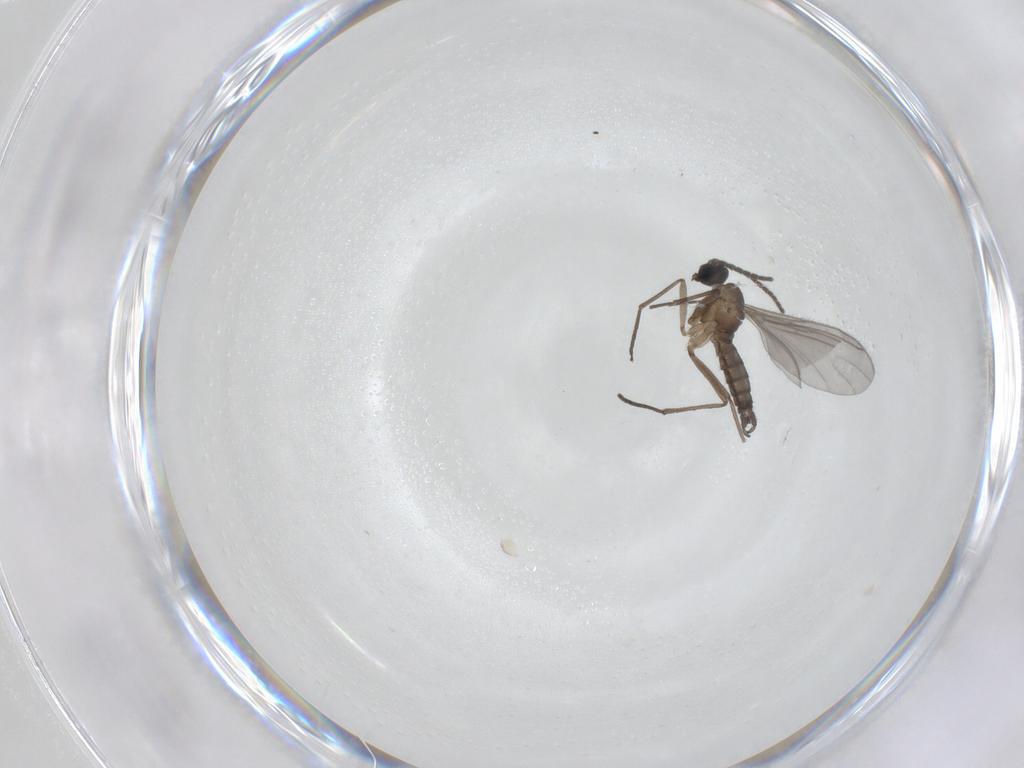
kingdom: Animalia
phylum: Arthropoda
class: Insecta
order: Diptera
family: Sciaridae
